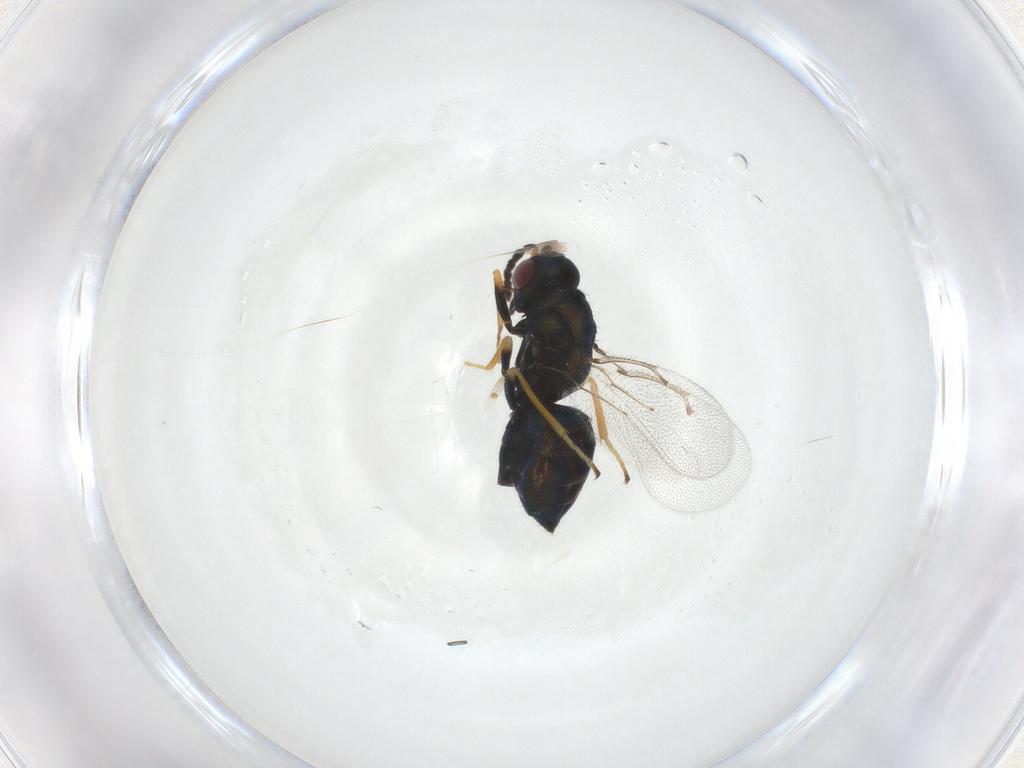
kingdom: Animalia
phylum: Arthropoda
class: Insecta
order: Hymenoptera
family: Eulophidae
